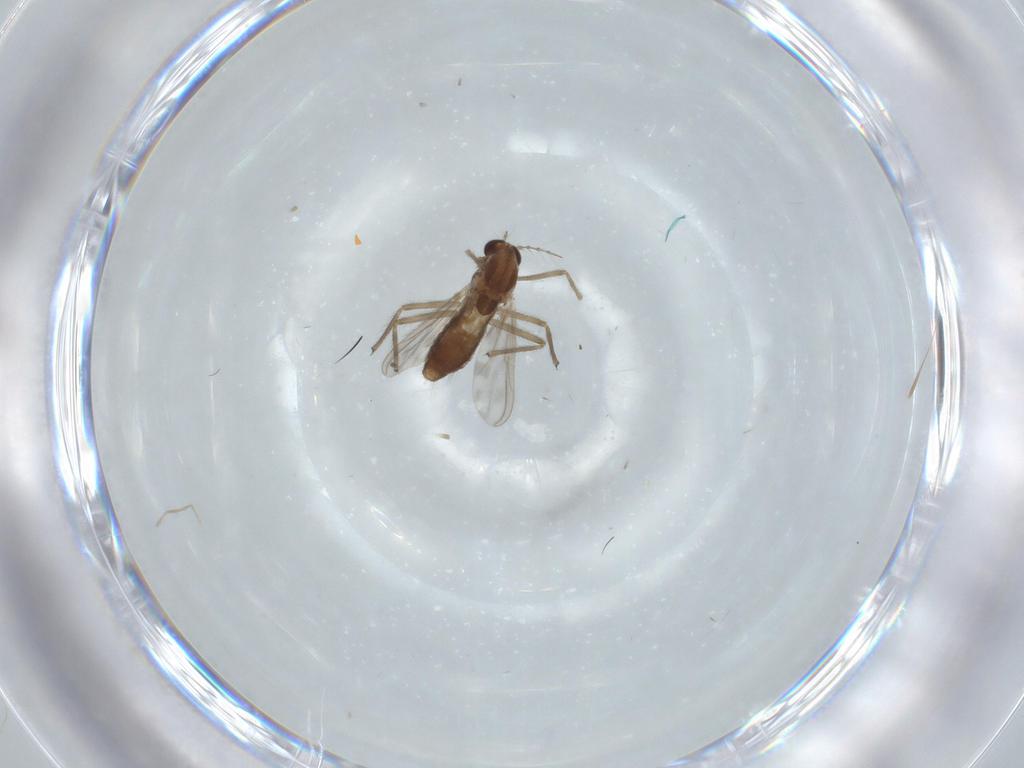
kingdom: Animalia
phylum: Arthropoda
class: Insecta
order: Diptera
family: Chironomidae
